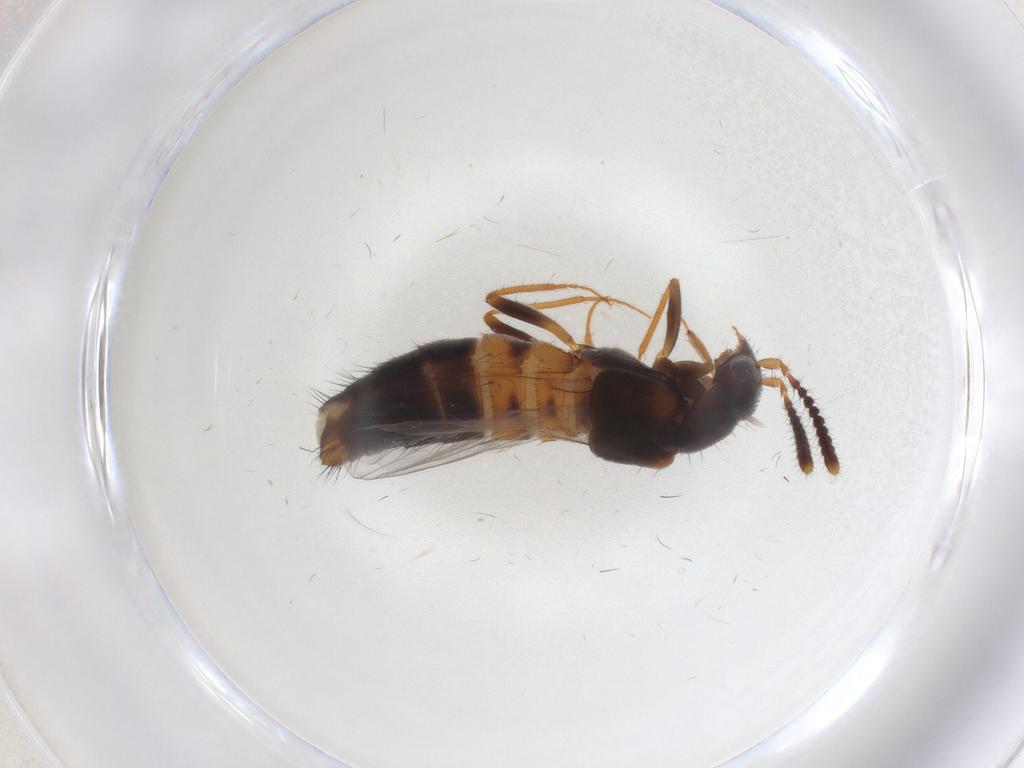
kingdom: Animalia
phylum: Arthropoda
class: Insecta
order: Coleoptera
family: Staphylinidae
